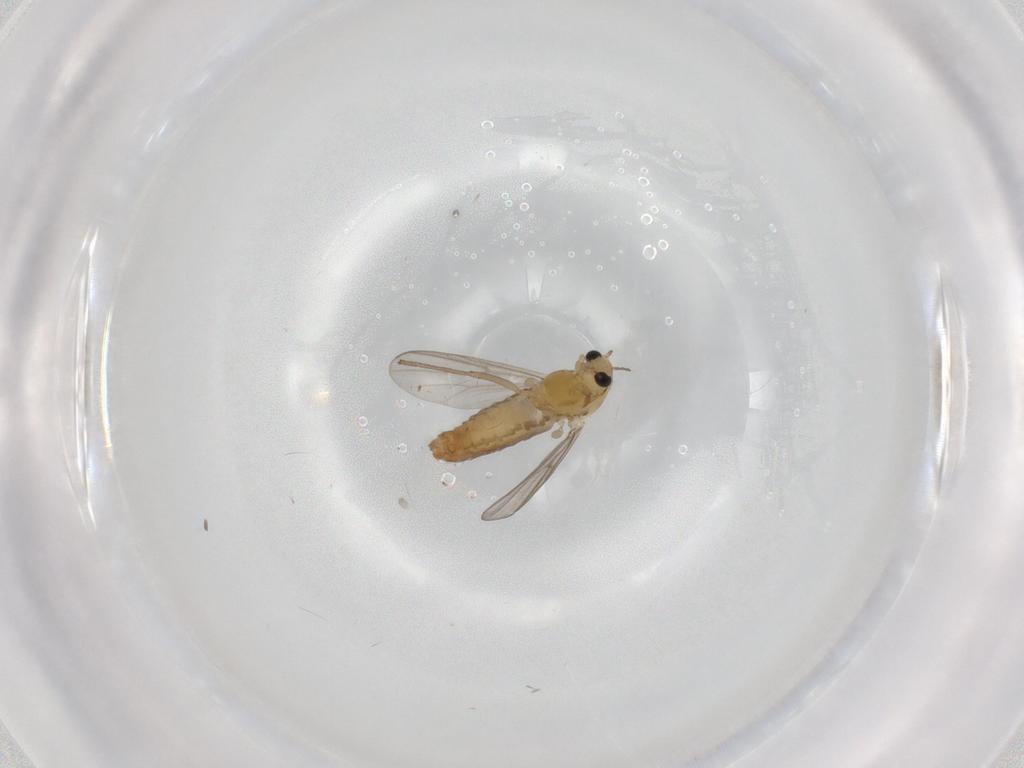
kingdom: Animalia
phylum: Arthropoda
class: Insecta
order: Diptera
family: Chironomidae
